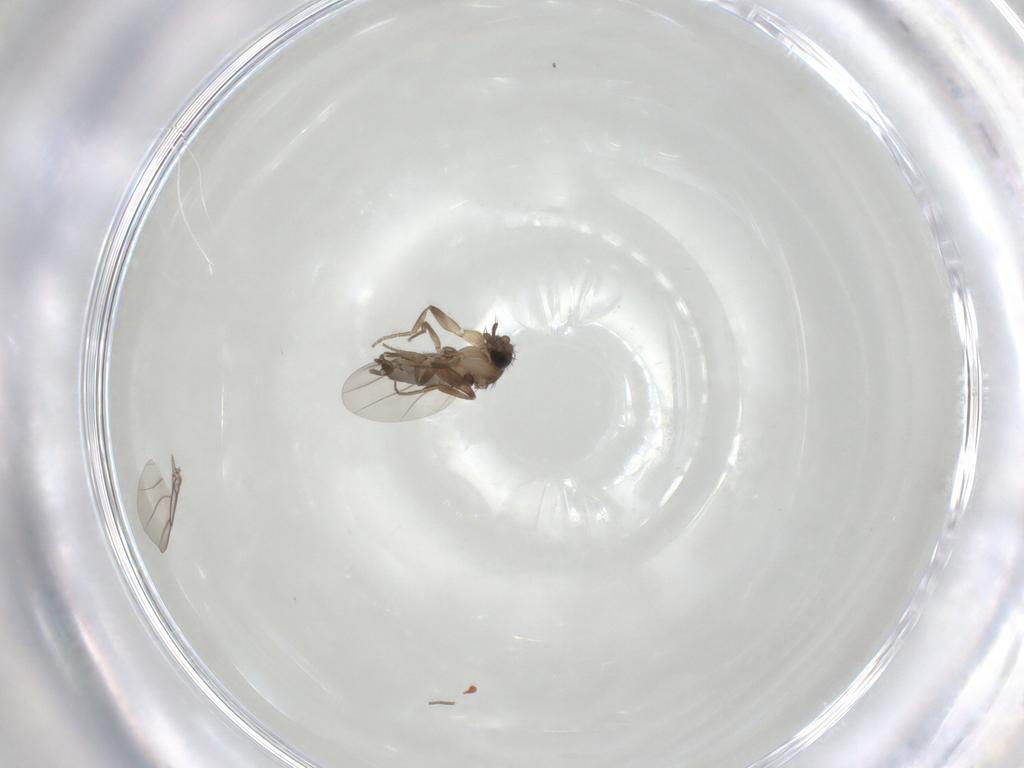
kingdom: Animalia
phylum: Arthropoda
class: Insecta
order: Diptera
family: Phoridae
